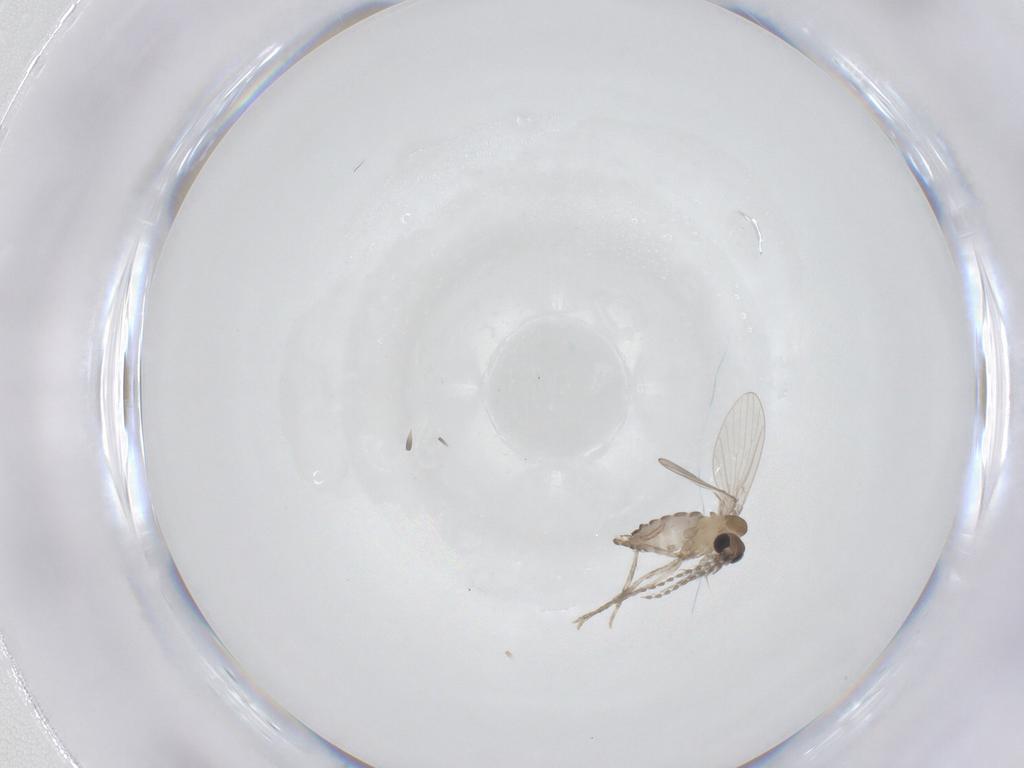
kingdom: Animalia
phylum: Arthropoda
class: Insecta
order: Diptera
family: Psychodidae
